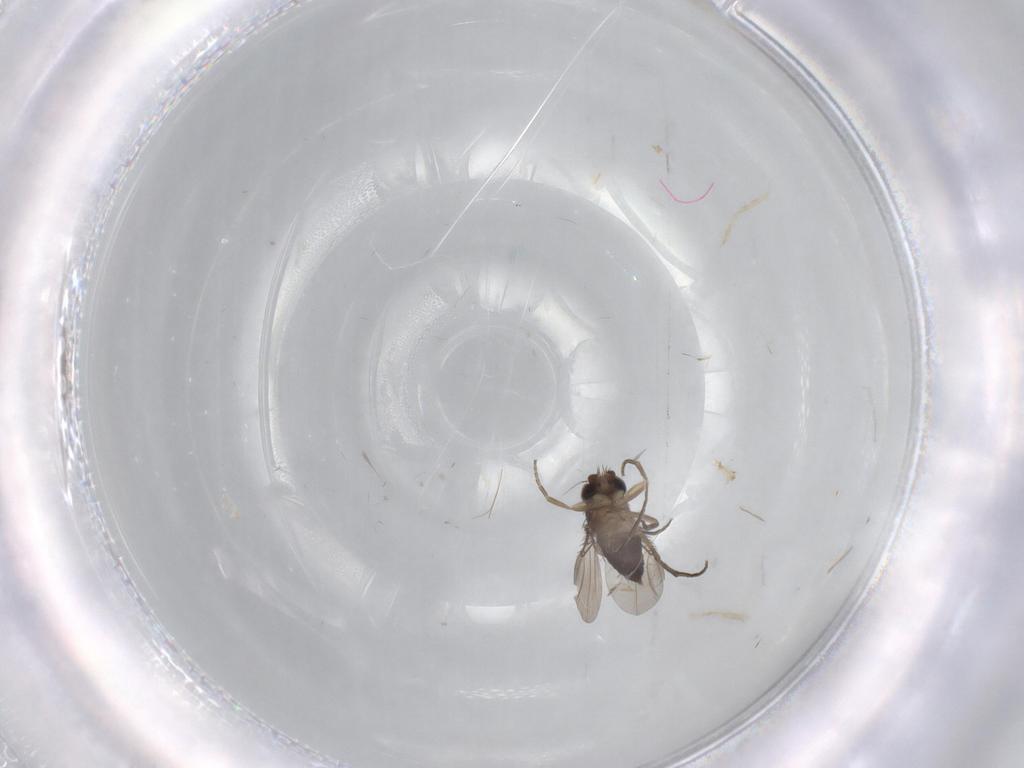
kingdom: Animalia
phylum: Arthropoda
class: Insecta
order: Diptera
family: Phoridae
